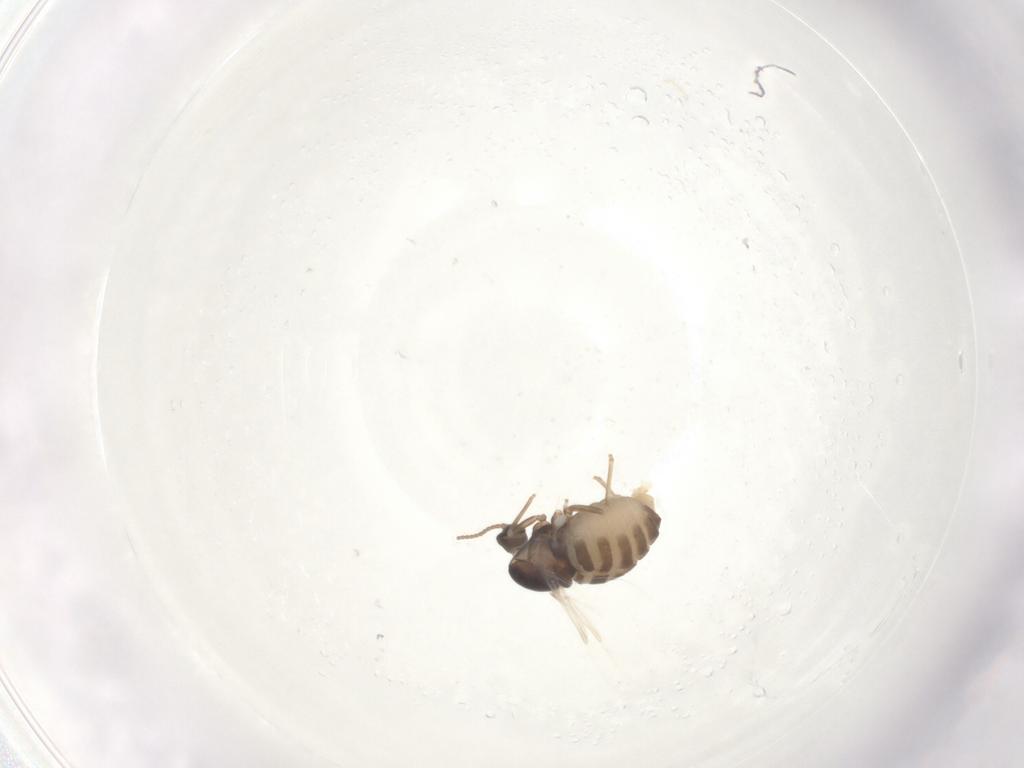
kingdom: Animalia
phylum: Arthropoda
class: Insecta
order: Diptera
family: Cecidomyiidae
